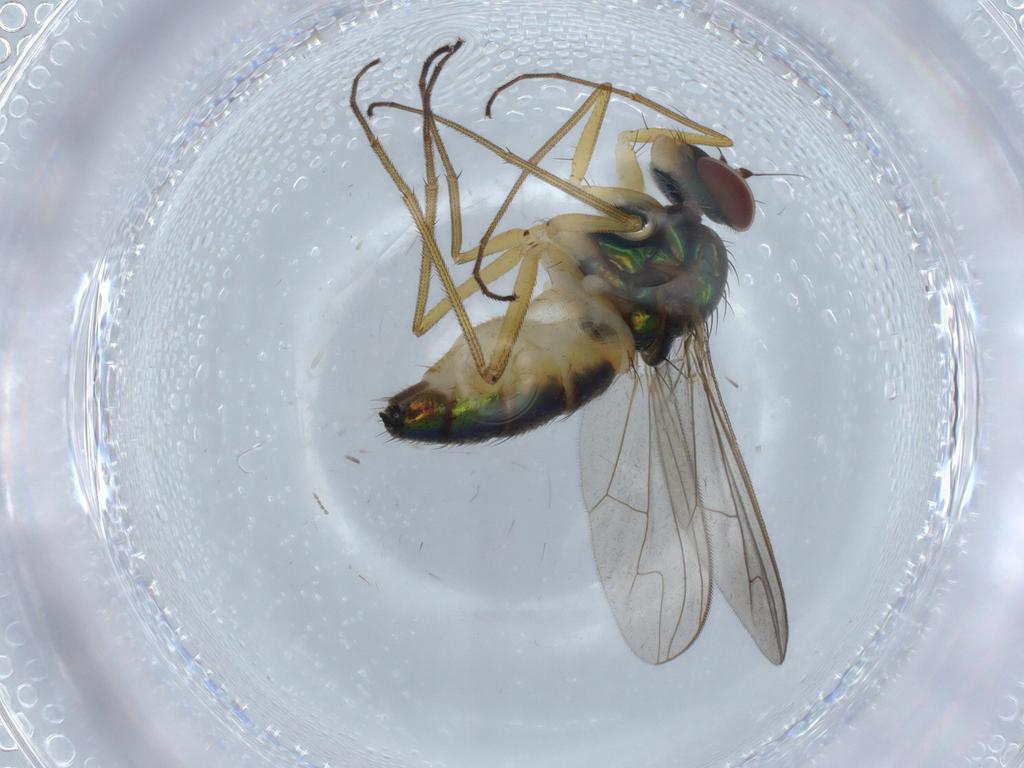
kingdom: Animalia
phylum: Arthropoda
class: Insecta
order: Diptera
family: Dolichopodidae
